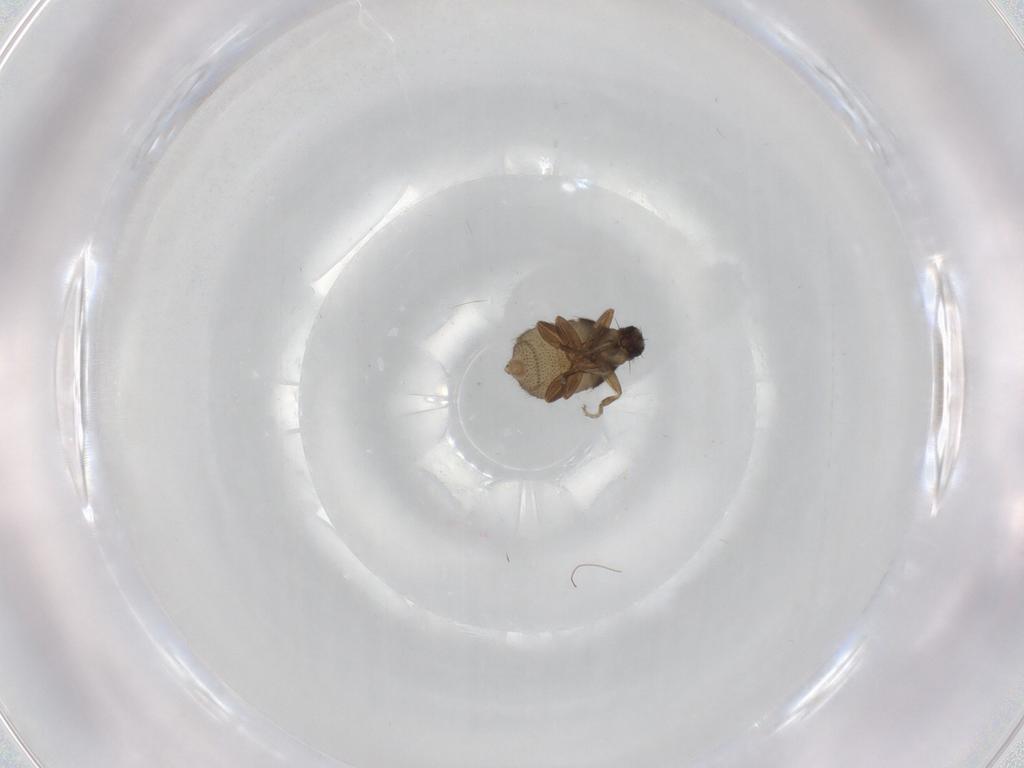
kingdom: Animalia
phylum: Arthropoda
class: Insecta
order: Diptera
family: Phoridae
